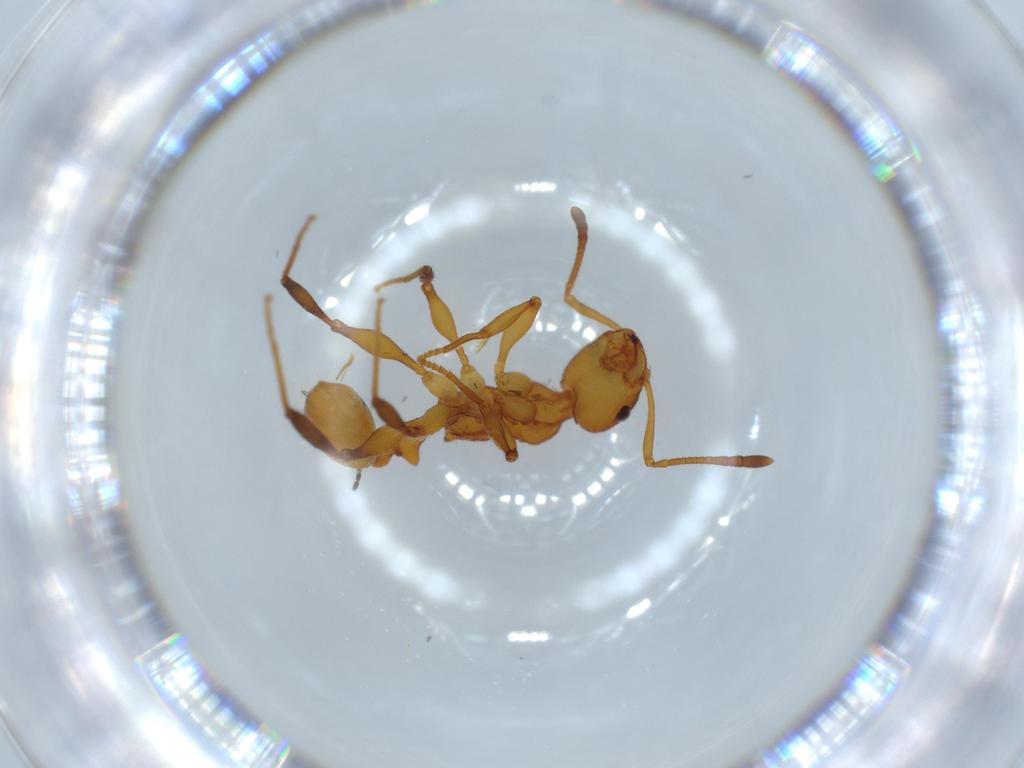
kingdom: Animalia
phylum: Arthropoda
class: Insecta
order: Hymenoptera
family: Formicidae
